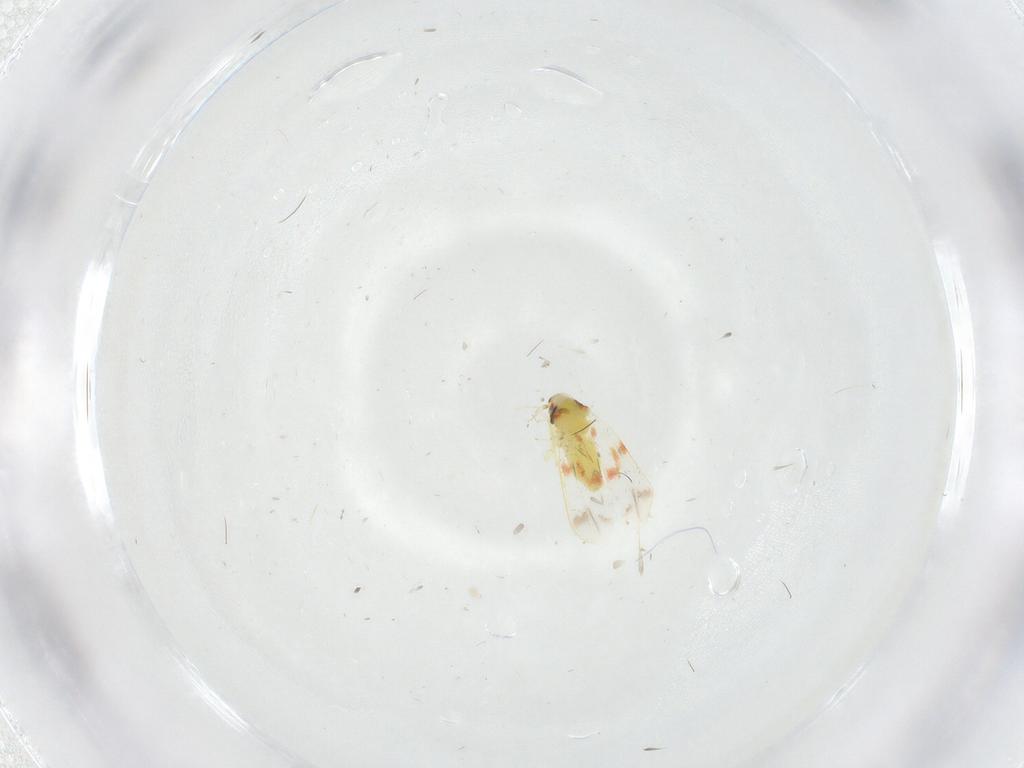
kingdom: Animalia
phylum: Arthropoda
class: Insecta
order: Hemiptera
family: Aleyrodidae
